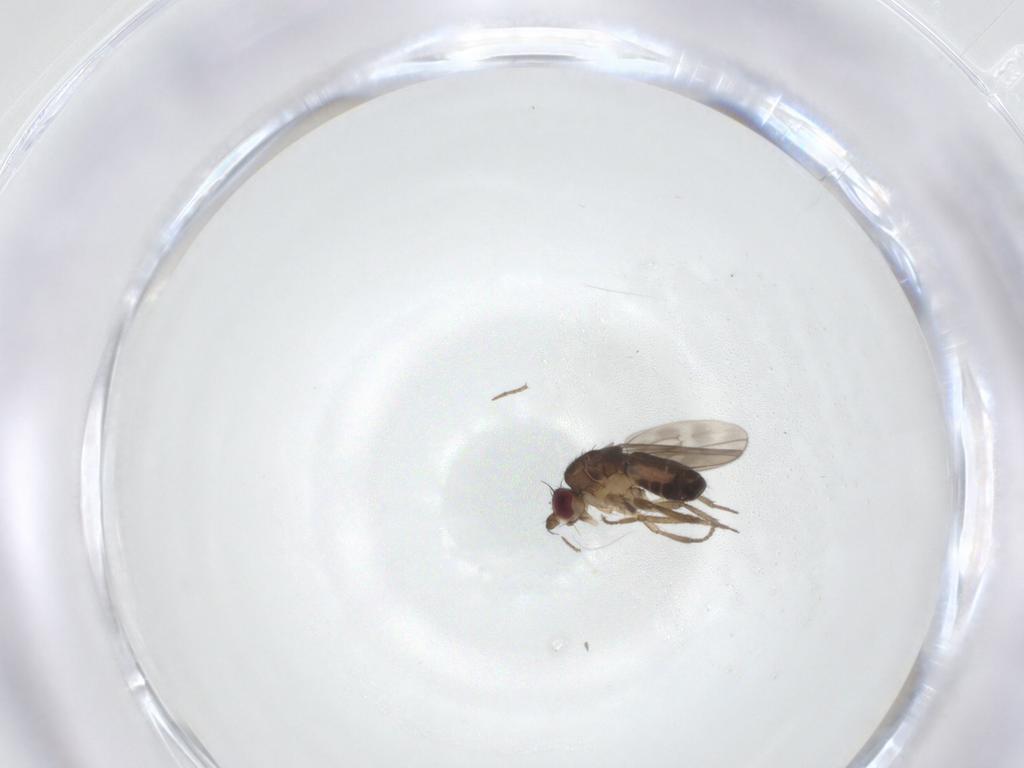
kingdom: Animalia
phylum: Arthropoda
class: Insecta
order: Diptera
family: Sphaeroceridae
